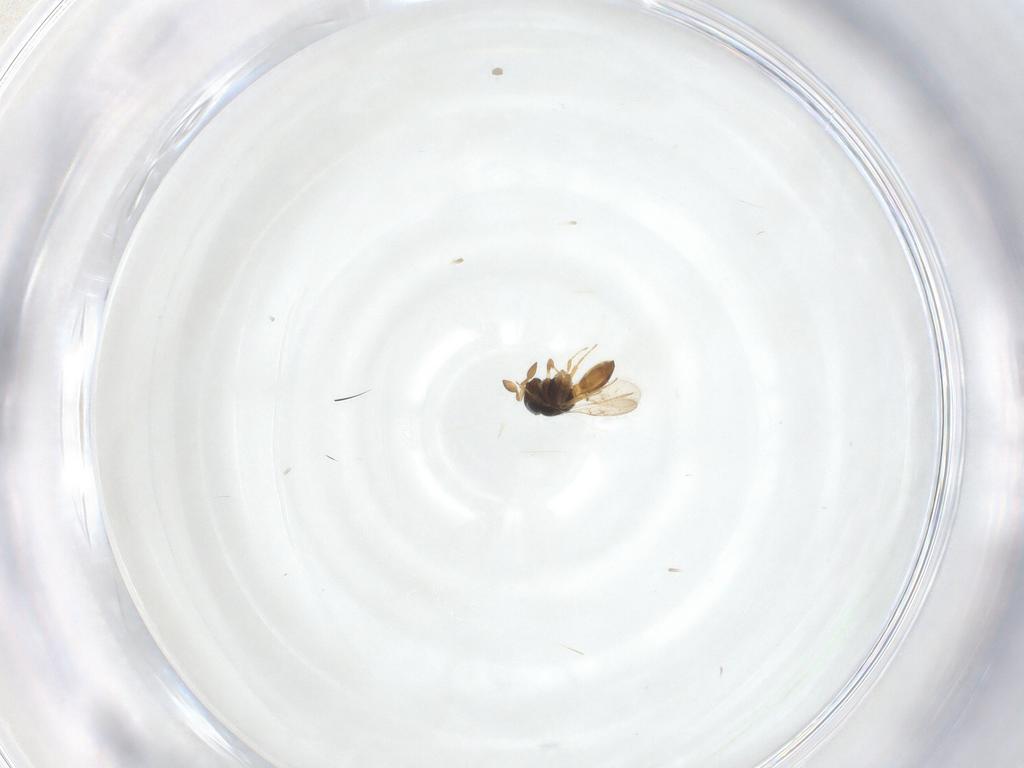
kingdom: Animalia
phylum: Arthropoda
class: Insecta
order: Hymenoptera
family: Scelionidae
